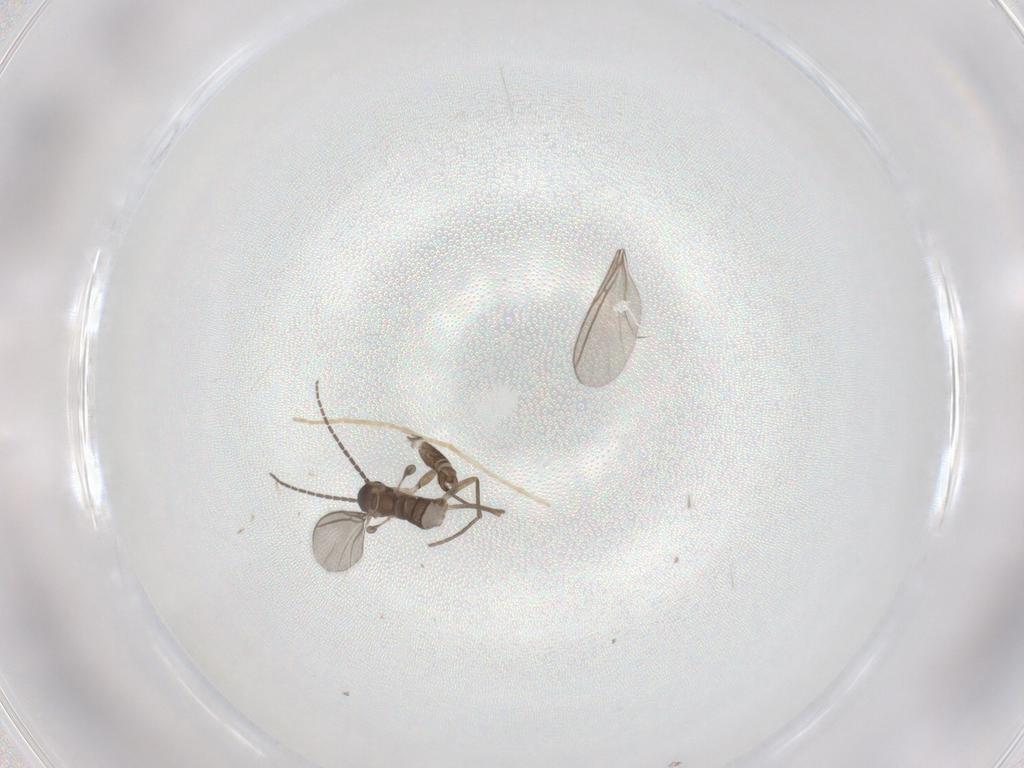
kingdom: Animalia
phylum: Arthropoda
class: Insecta
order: Diptera
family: Sciaridae
